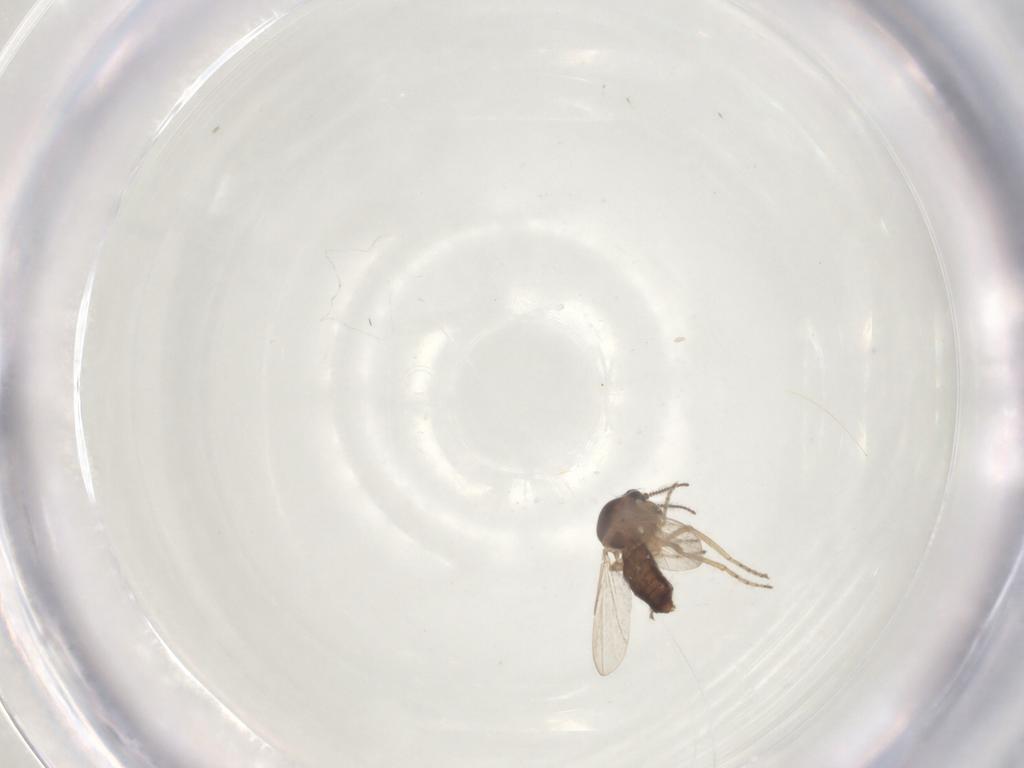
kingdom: Animalia
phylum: Arthropoda
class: Insecta
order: Diptera
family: Ceratopogonidae
